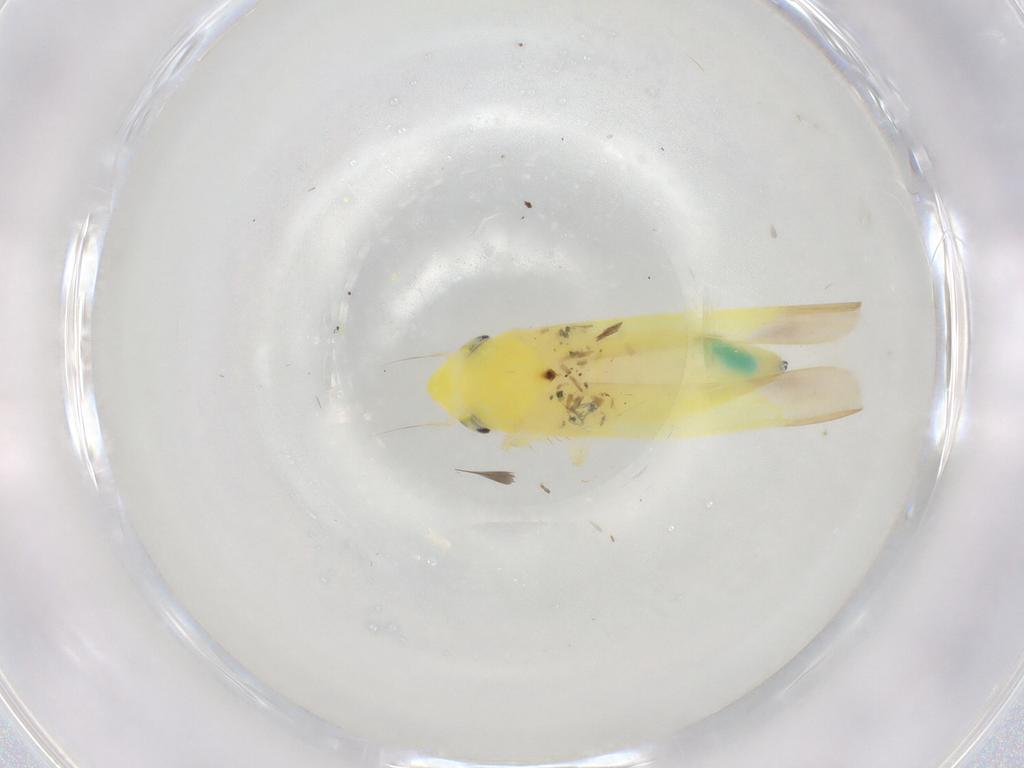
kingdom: Animalia
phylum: Arthropoda
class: Insecta
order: Hemiptera
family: Cicadellidae
